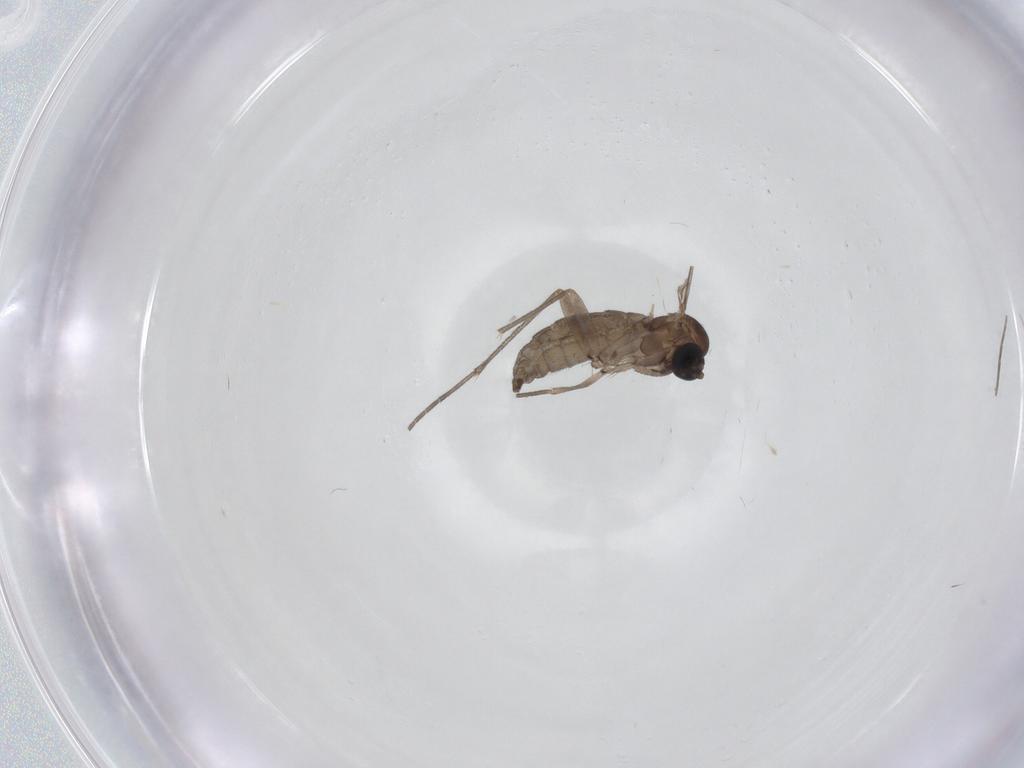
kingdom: Animalia
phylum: Arthropoda
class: Insecta
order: Diptera
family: Sciaridae
